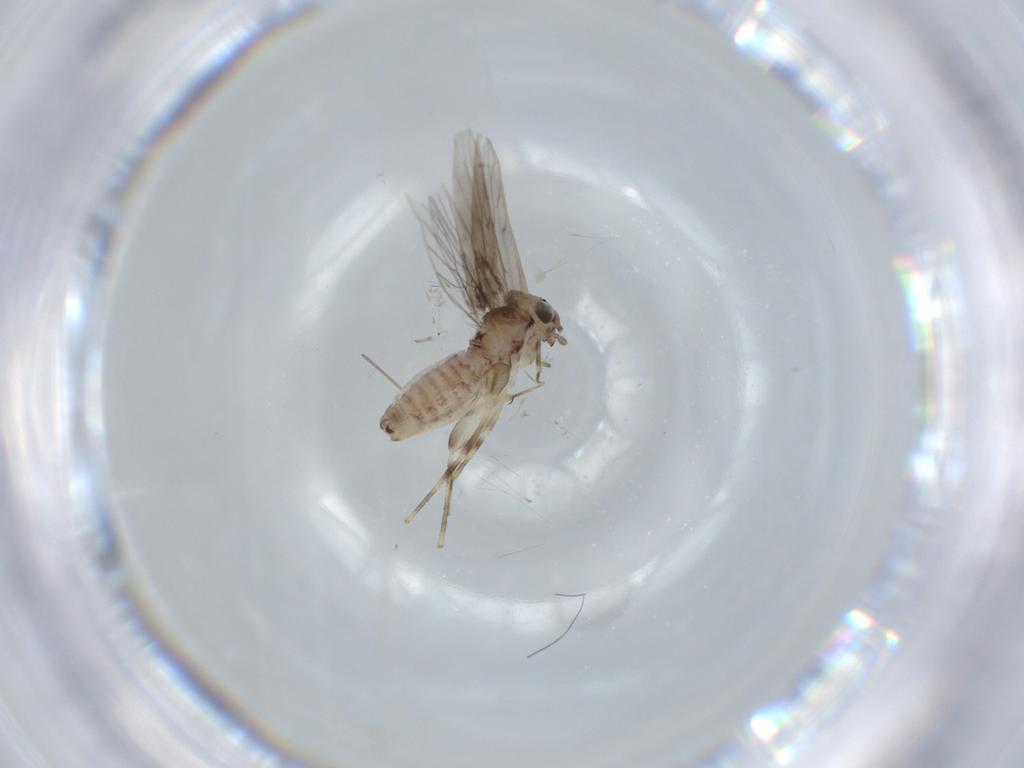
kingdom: Animalia
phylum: Arthropoda
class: Insecta
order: Psocodea
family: Lepidopsocidae
